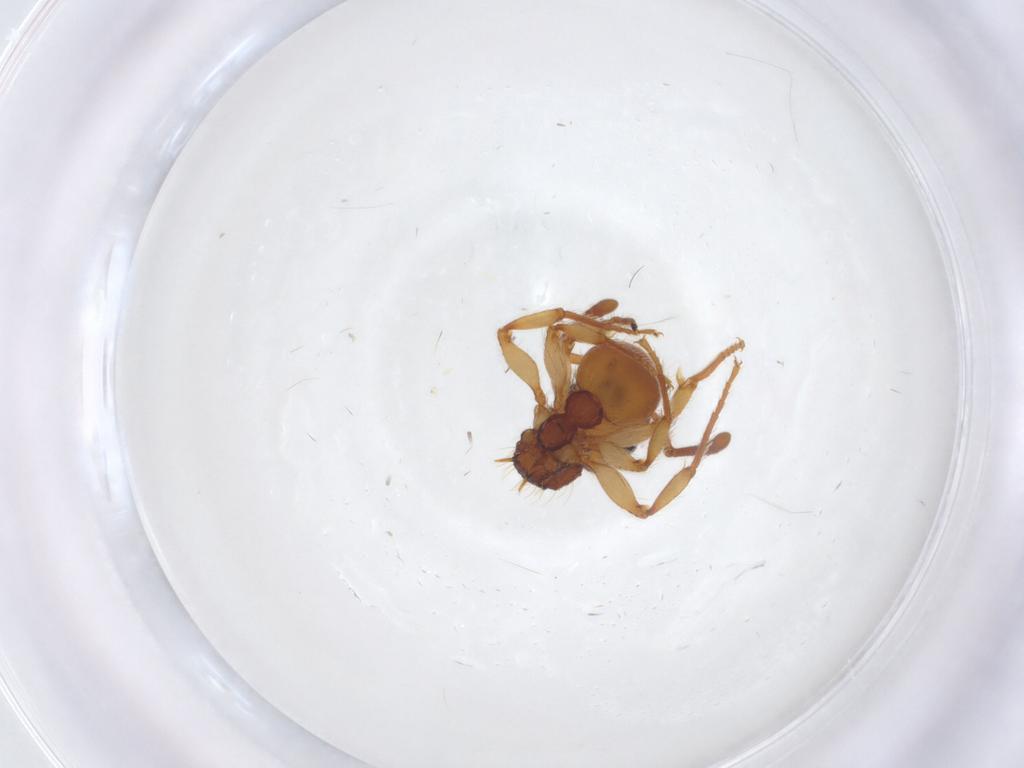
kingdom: Animalia
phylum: Arthropoda
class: Insecta
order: Hymenoptera
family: Formicidae
